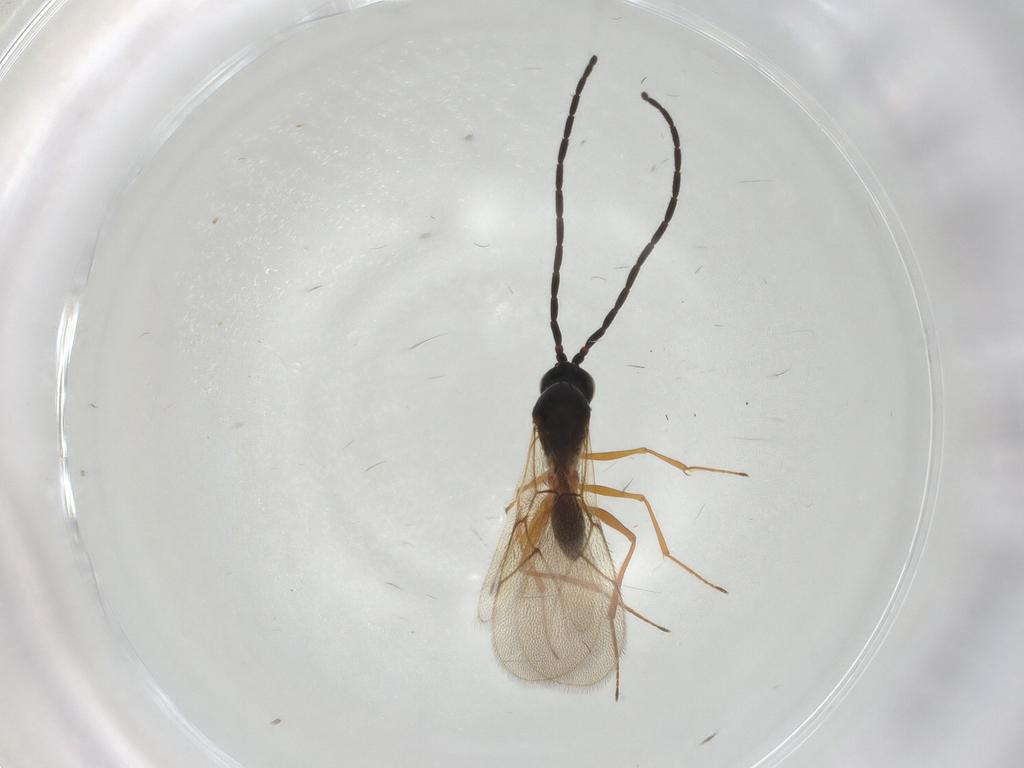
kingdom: Animalia
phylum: Arthropoda
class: Insecta
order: Hymenoptera
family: Figitidae
